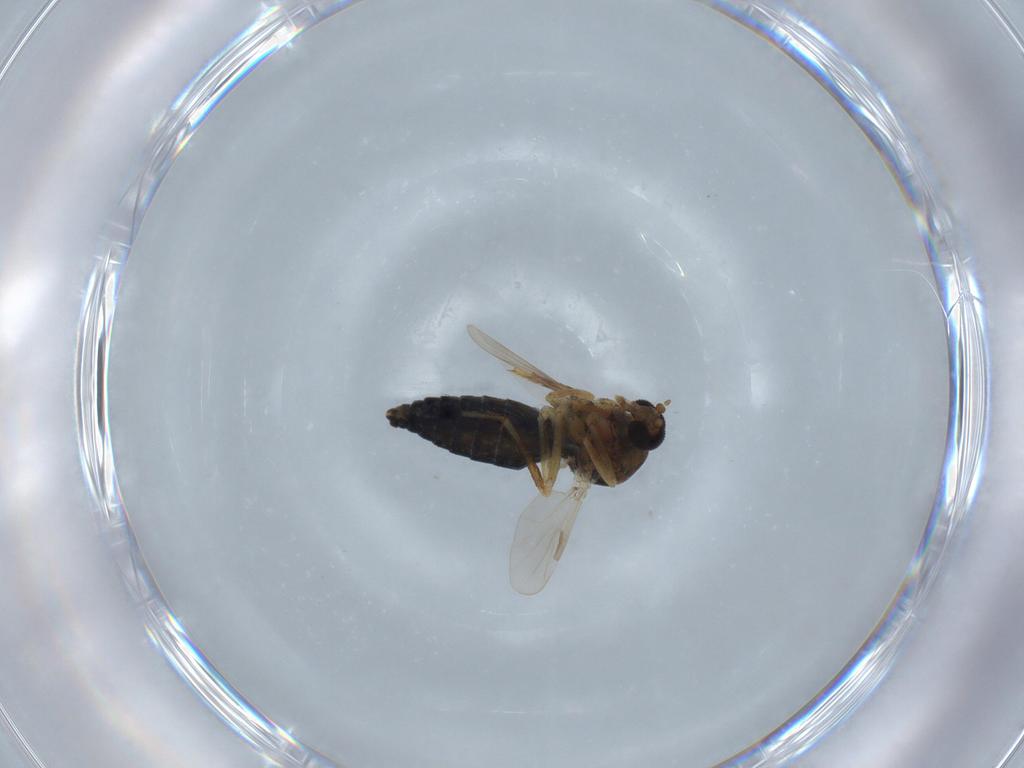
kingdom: Animalia
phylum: Arthropoda
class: Insecta
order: Diptera
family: Ceratopogonidae
